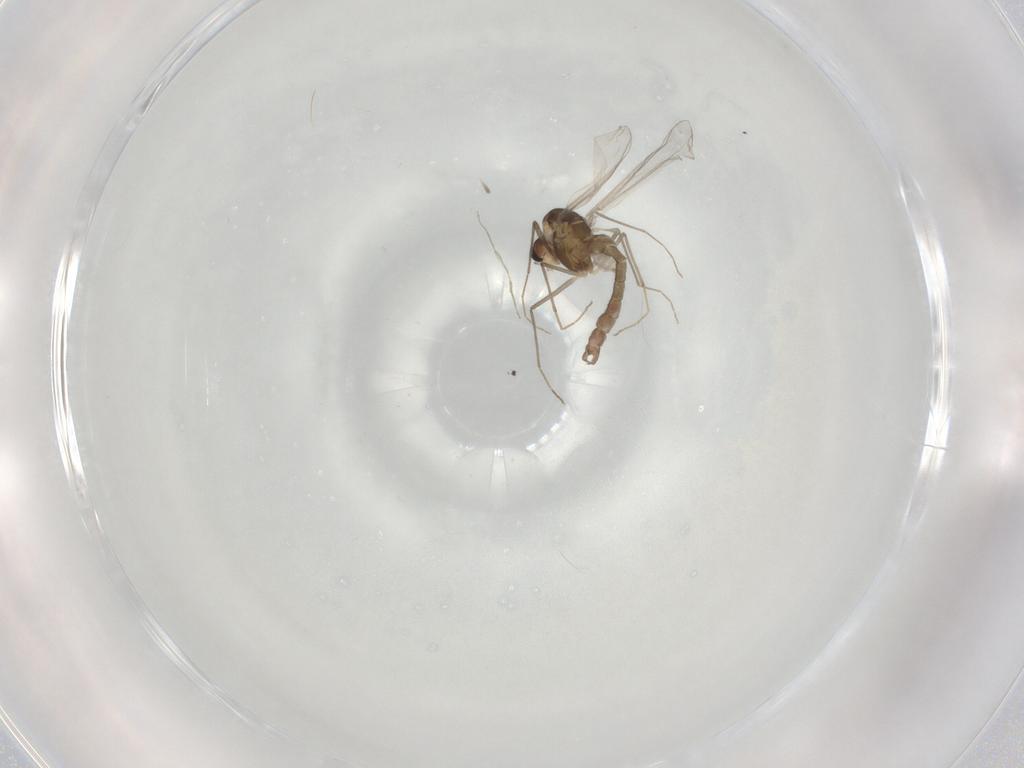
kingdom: Animalia
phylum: Arthropoda
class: Insecta
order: Diptera
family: Chironomidae
